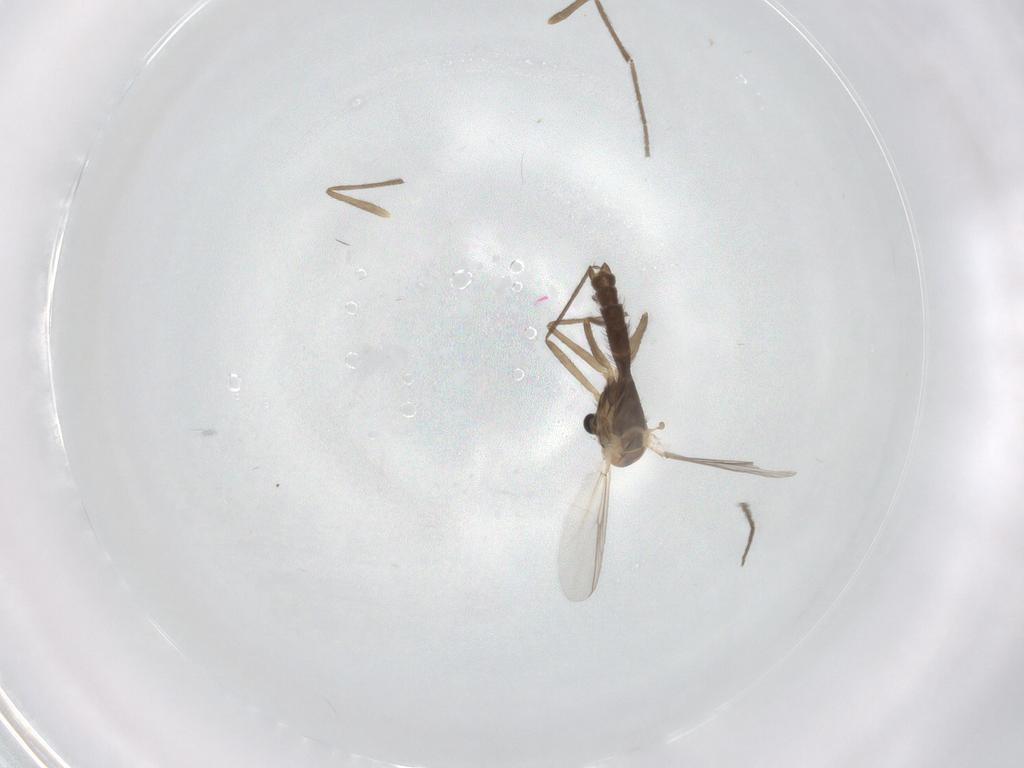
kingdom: Animalia
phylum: Arthropoda
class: Insecta
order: Diptera
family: Chironomidae
